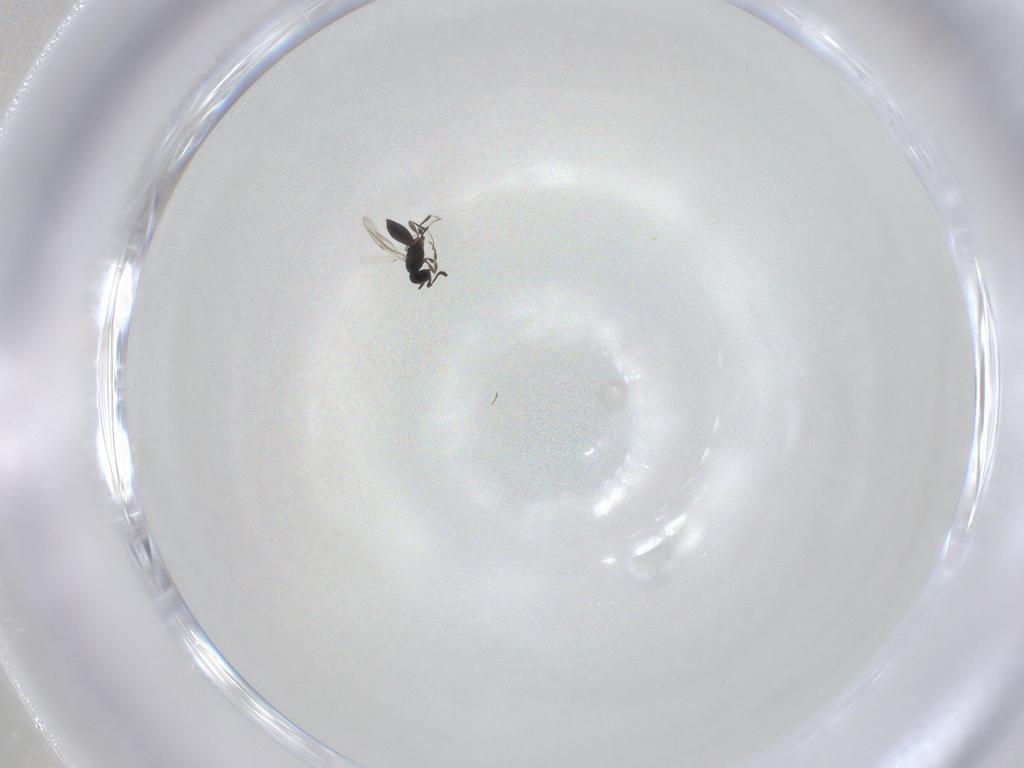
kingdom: Animalia
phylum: Arthropoda
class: Insecta
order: Hymenoptera
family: Scelionidae
